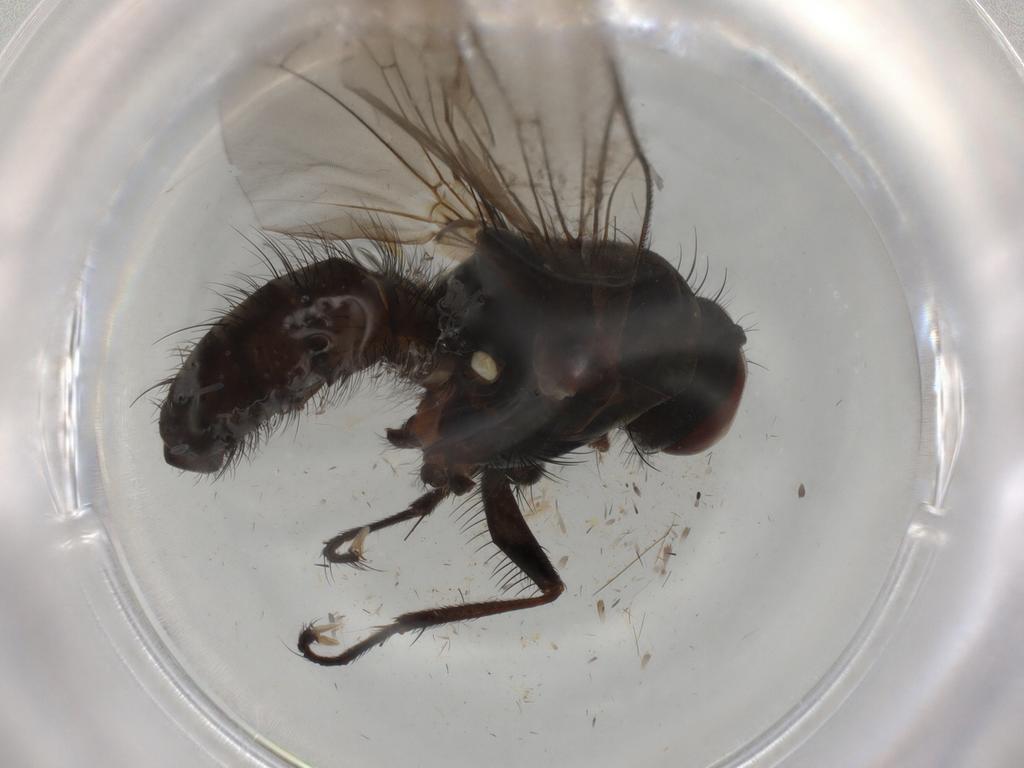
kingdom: Animalia
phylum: Arthropoda
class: Insecta
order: Diptera
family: Anthomyiidae
